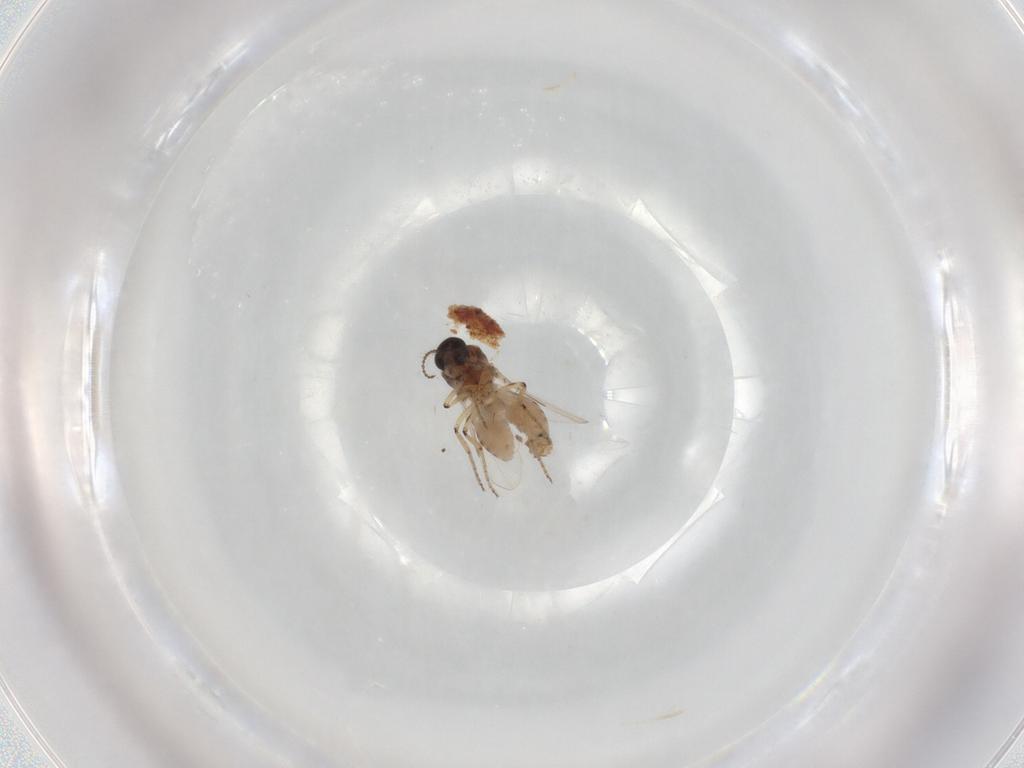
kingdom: Animalia
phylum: Arthropoda
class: Insecta
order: Diptera
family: Ceratopogonidae
